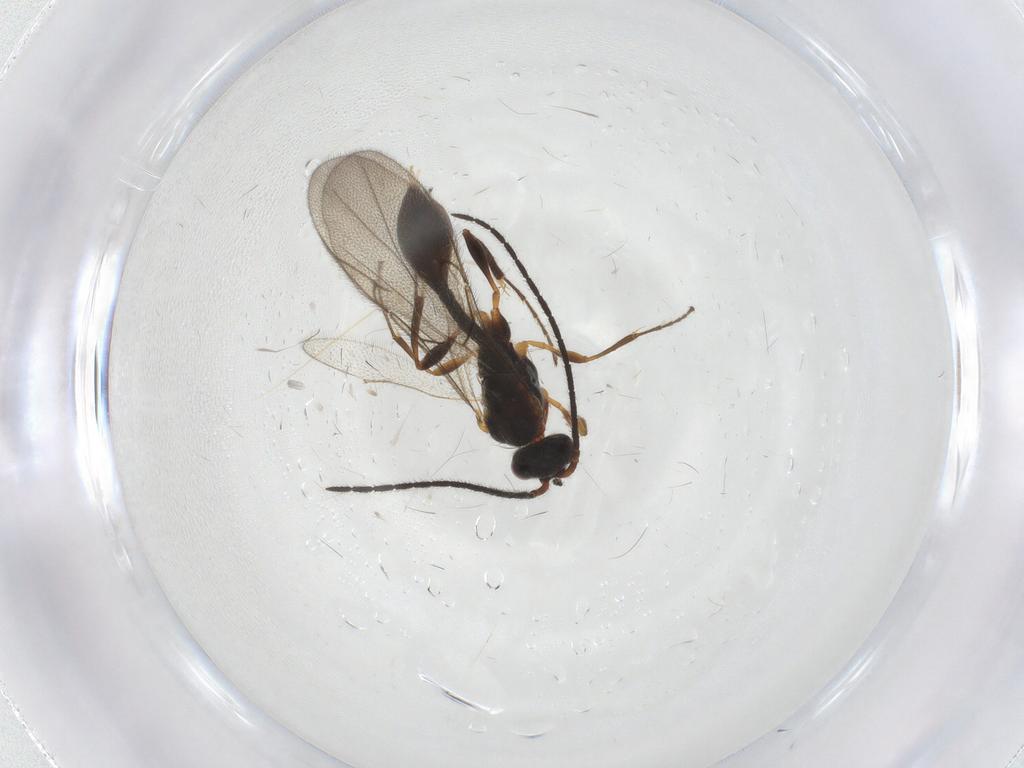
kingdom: Animalia
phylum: Arthropoda
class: Insecta
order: Hymenoptera
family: Diapriidae
